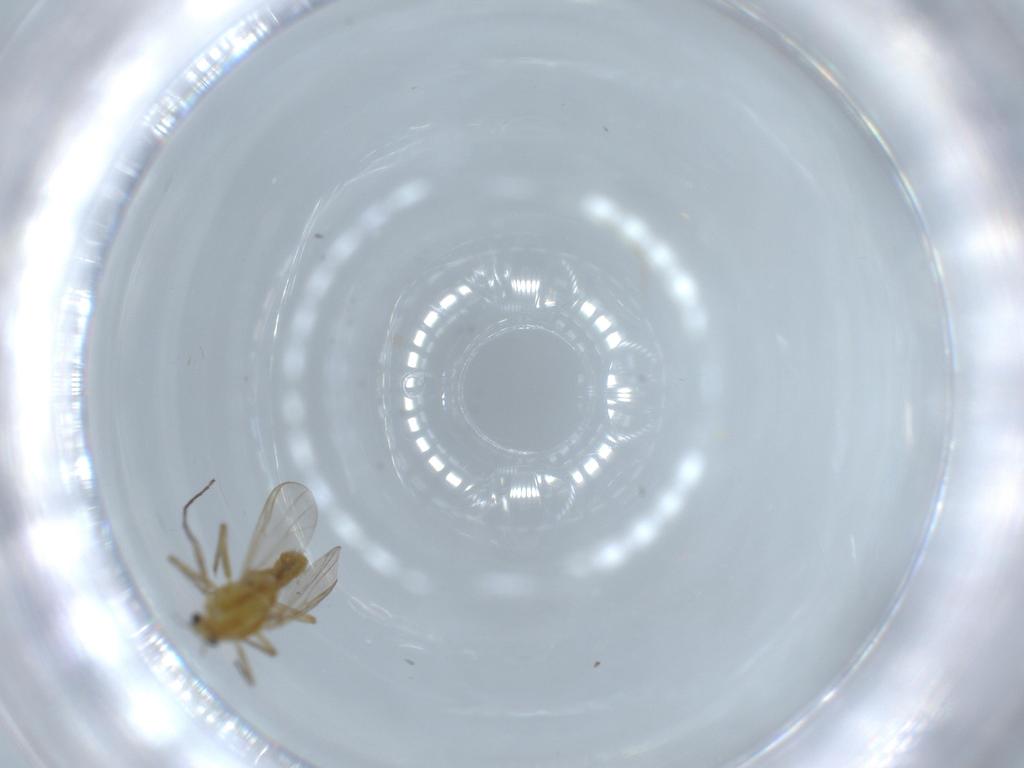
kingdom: Animalia
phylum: Arthropoda
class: Insecta
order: Diptera
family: Chironomidae
